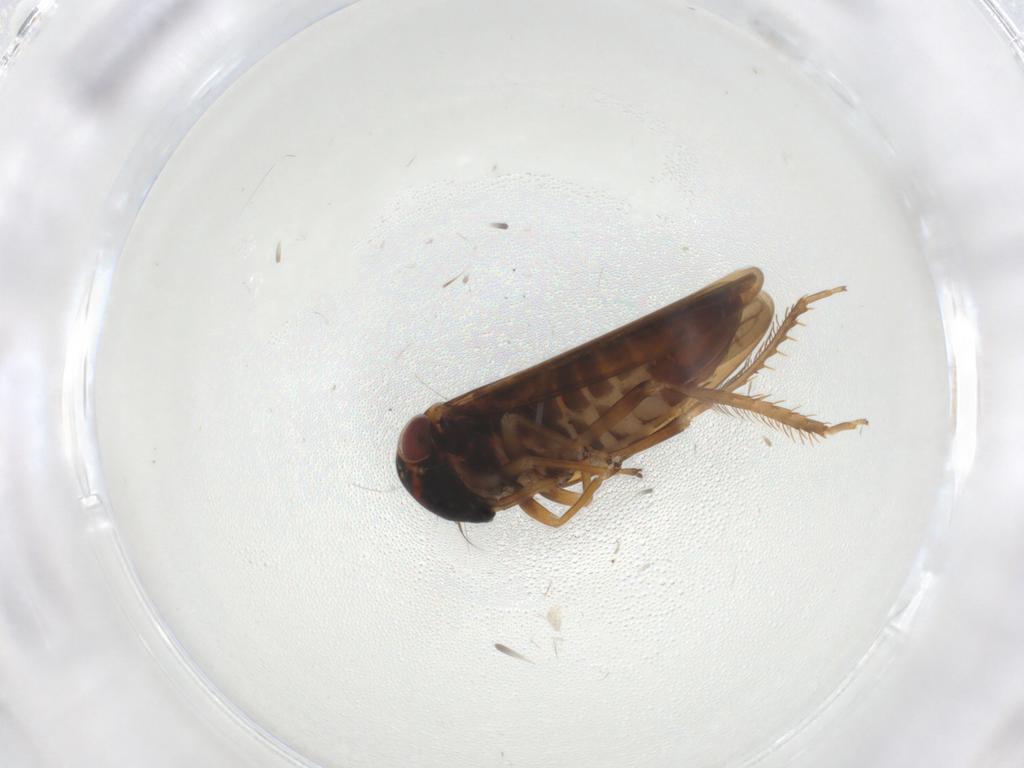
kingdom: Animalia
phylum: Arthropoda
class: Insecta
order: Hemiptera
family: Cicadellidae
